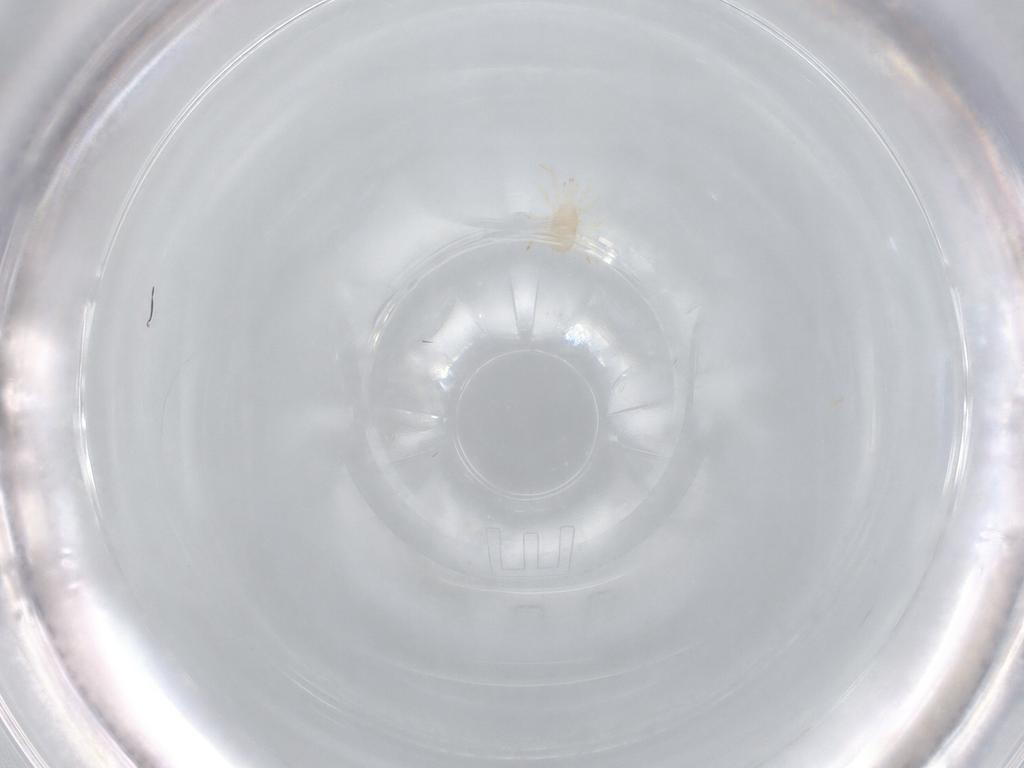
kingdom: Animalia
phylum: Arthropoda
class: Arachnida
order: Mesostigmata
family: Blattisociidae
